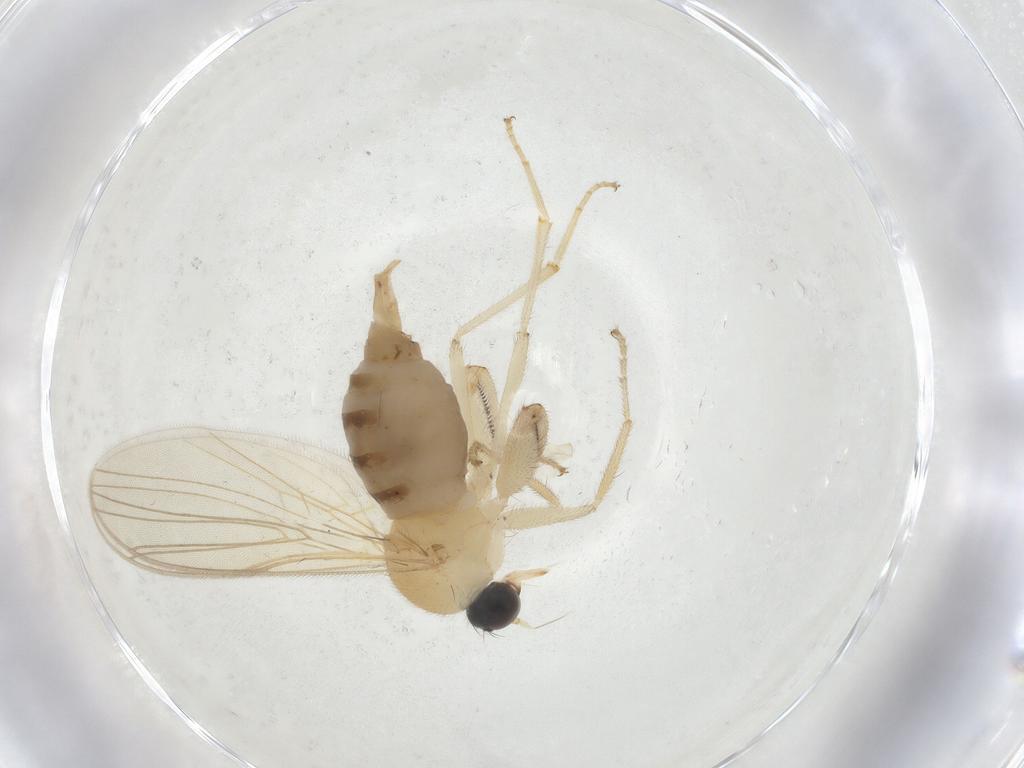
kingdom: Animalia
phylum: Arthropoda
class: Insecta
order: Diptera
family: Hybotidae
